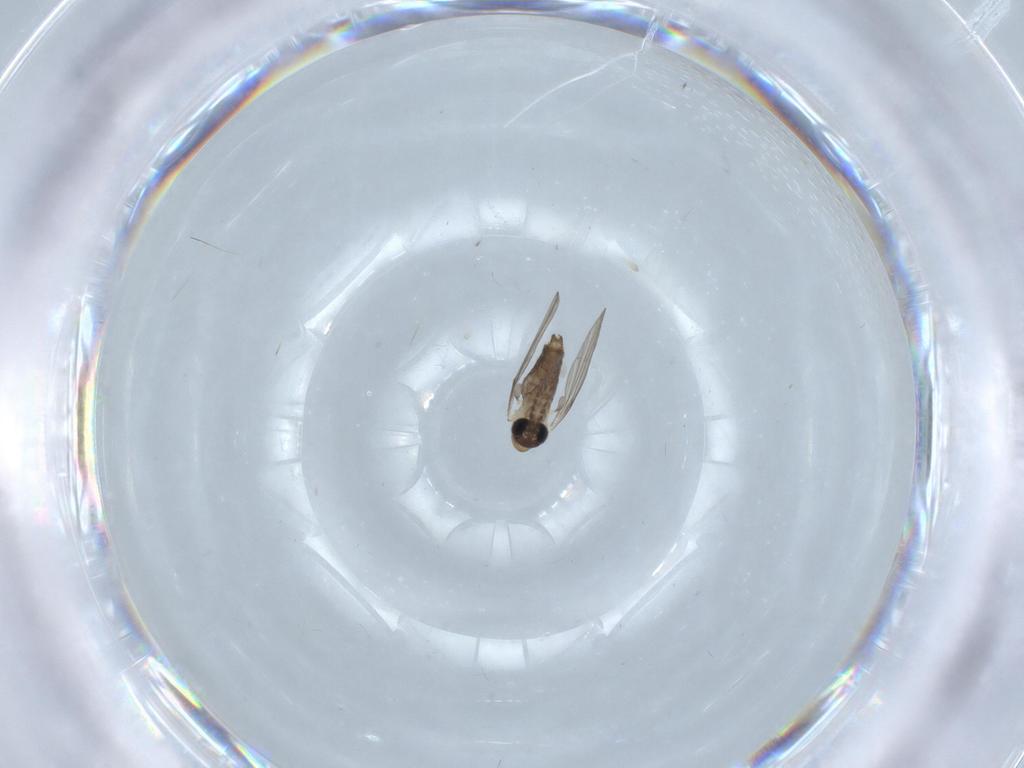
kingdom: Animalia
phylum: Arthropoda
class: Insecta
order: Diptera
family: Psychodidae
